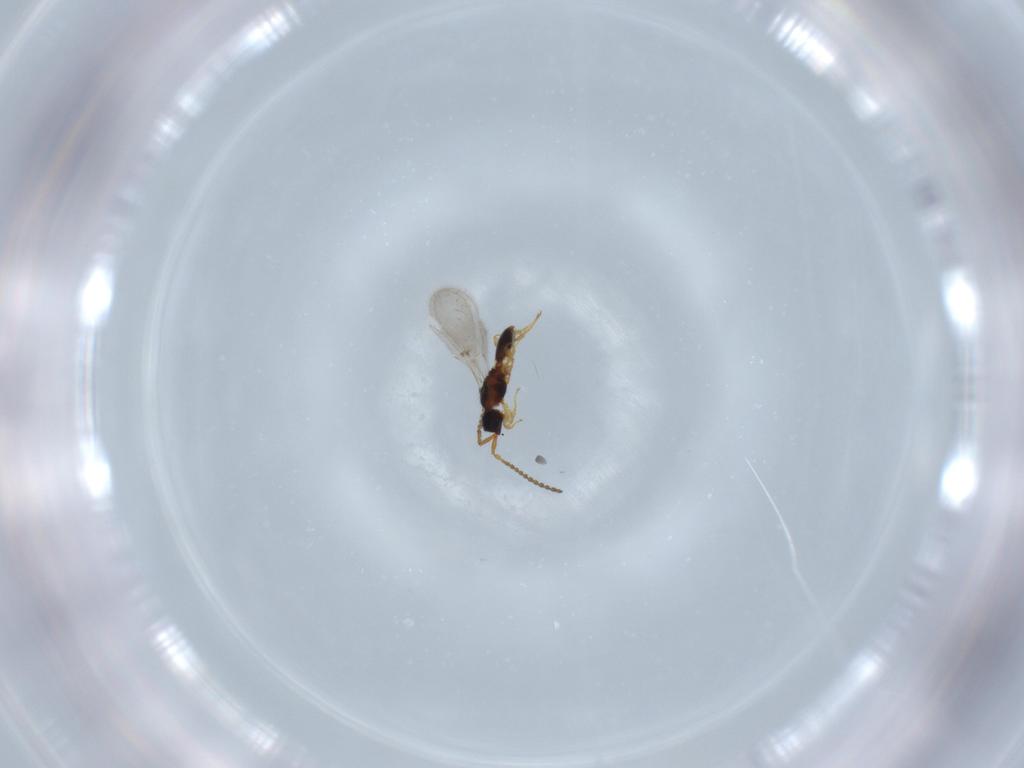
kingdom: Animalia
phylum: Arthropoda
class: Insecta
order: Hymenoptera
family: Diapriidae
